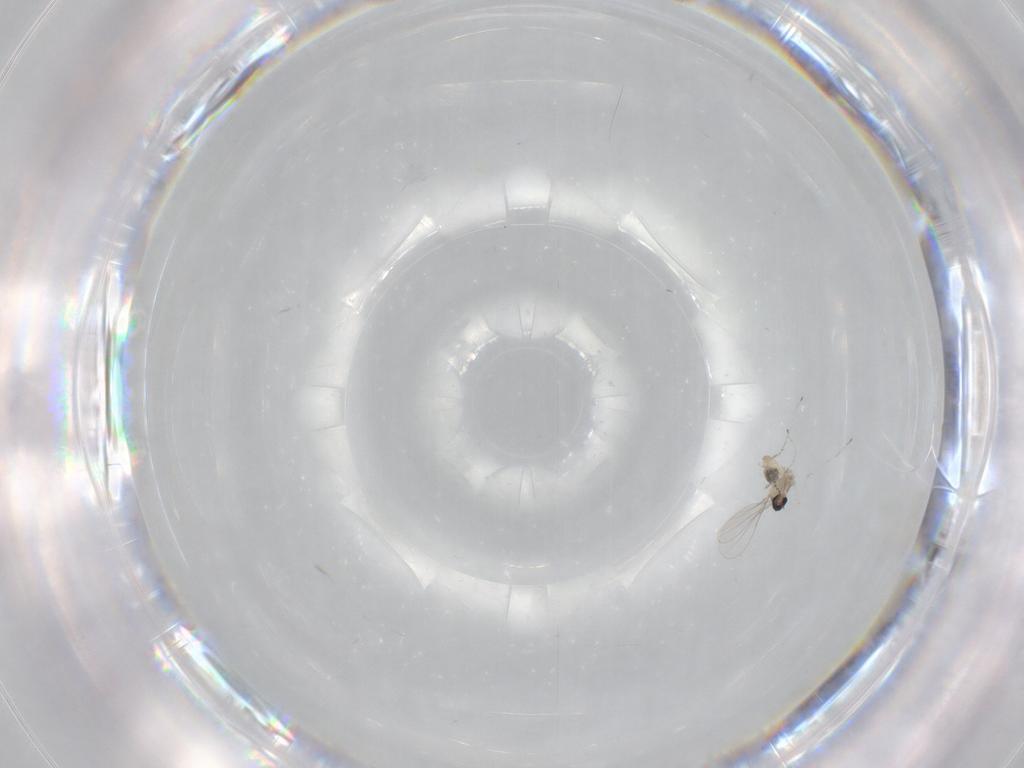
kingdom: Animalia
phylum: Arthropoda
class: Insecta
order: Diptera
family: Cecidomyiidae
